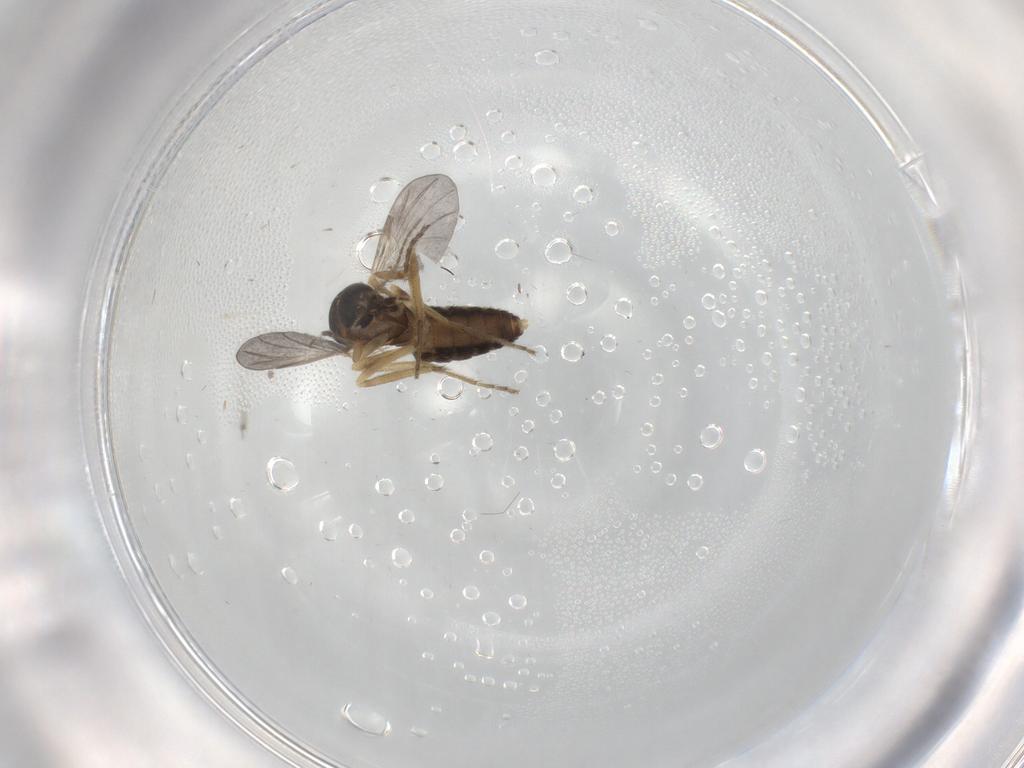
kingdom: Animalia
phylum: Arthropoda
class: Insecta
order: Diptera
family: Ceratopogonidae
